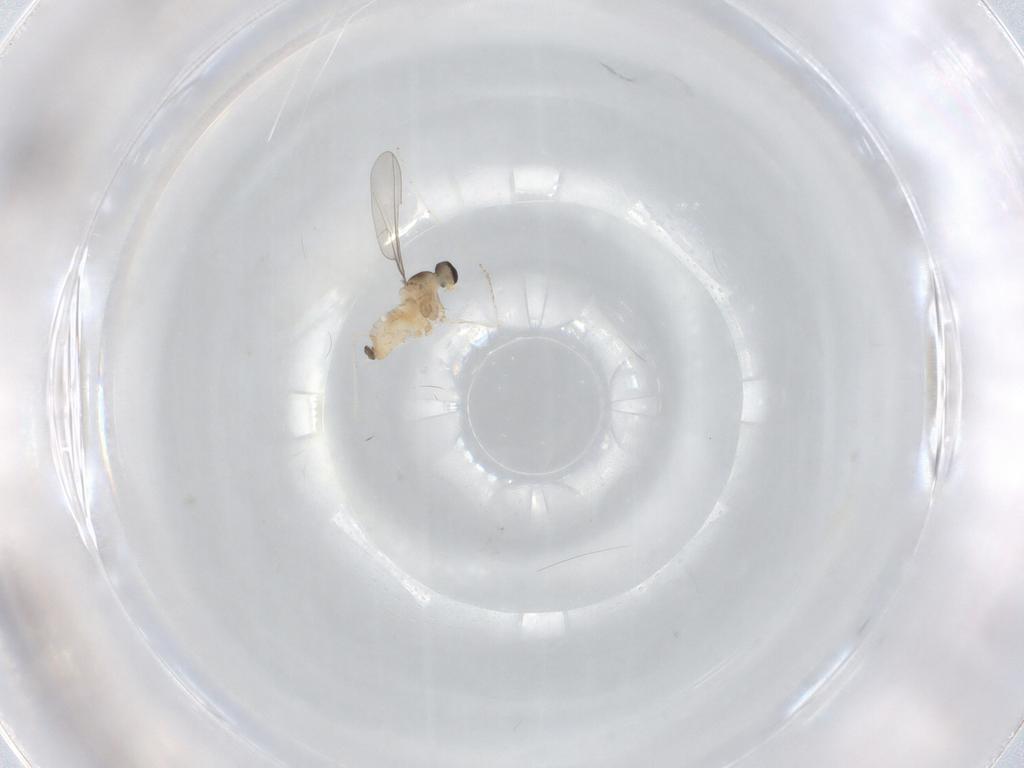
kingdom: Animalia
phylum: Arthropoda
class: Insecta
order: Diptera
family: Cecidomyiidae
